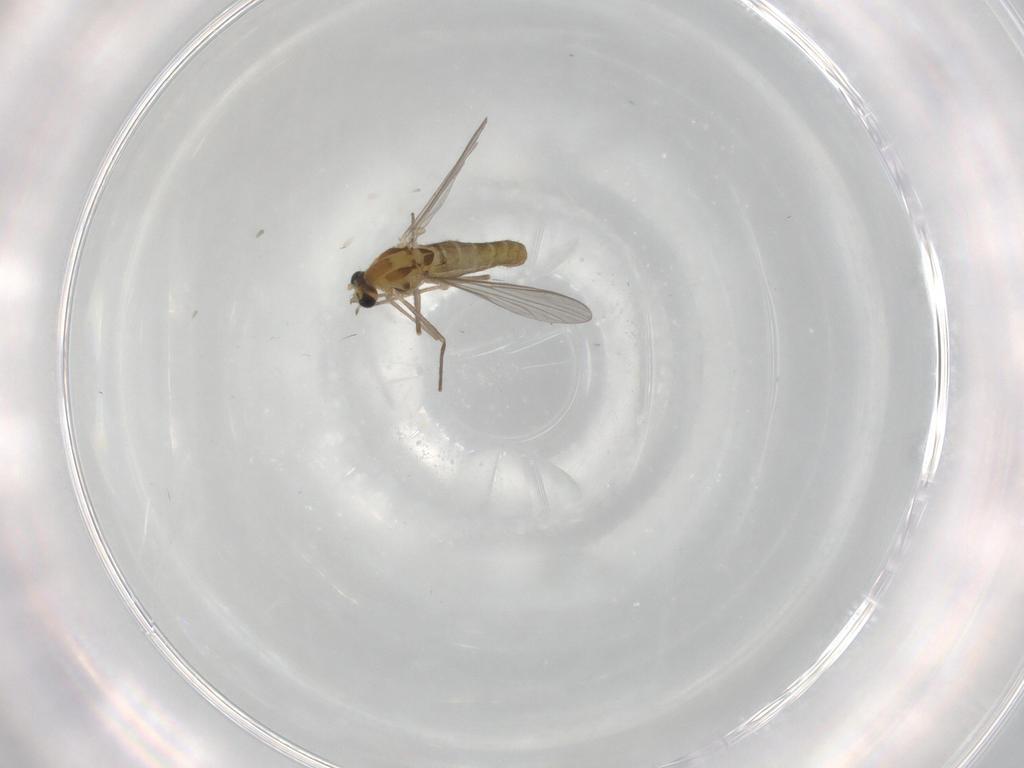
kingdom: Animalia
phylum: Arthropoda
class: Insecta
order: Diptera
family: Chironomidae
